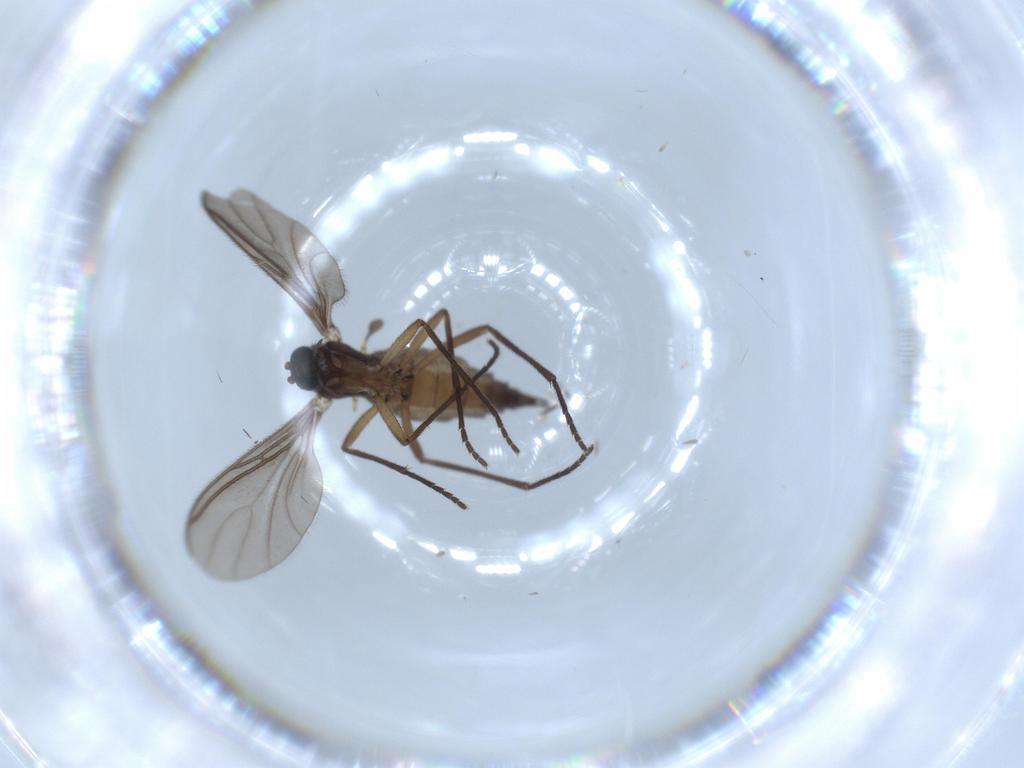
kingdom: Animalia
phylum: Arthropoda
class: Insecta
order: Diptera
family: Sciaridae
